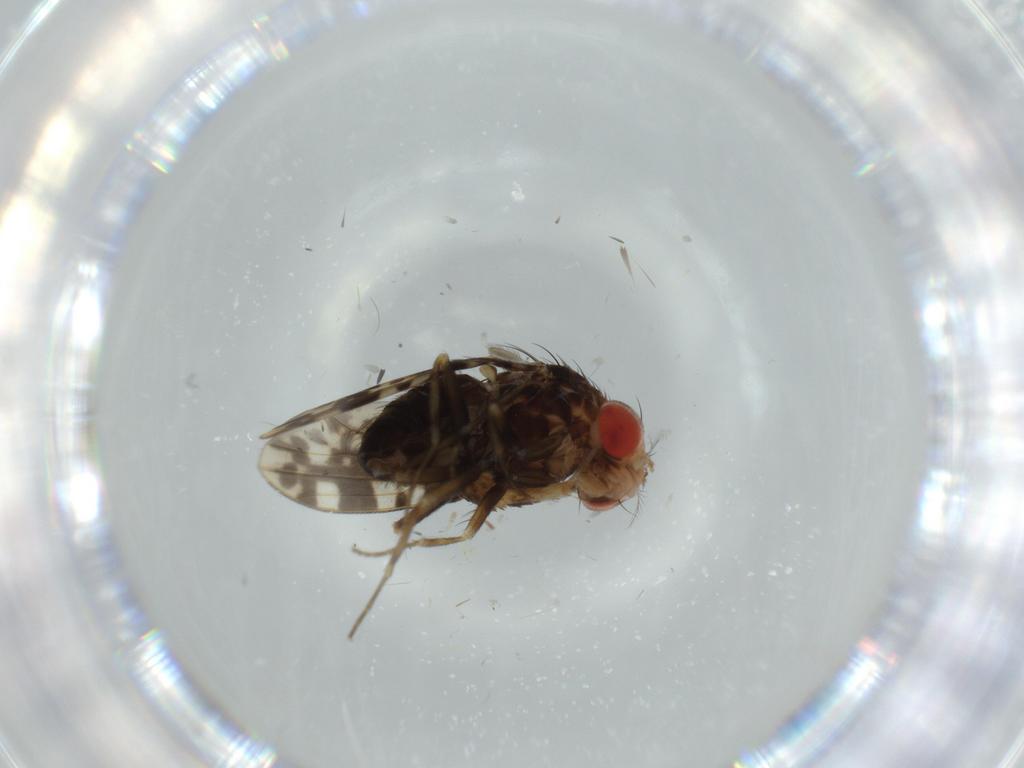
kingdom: Animalia
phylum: Arthropoda
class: Insecta
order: Diptera
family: Drosophilidae
